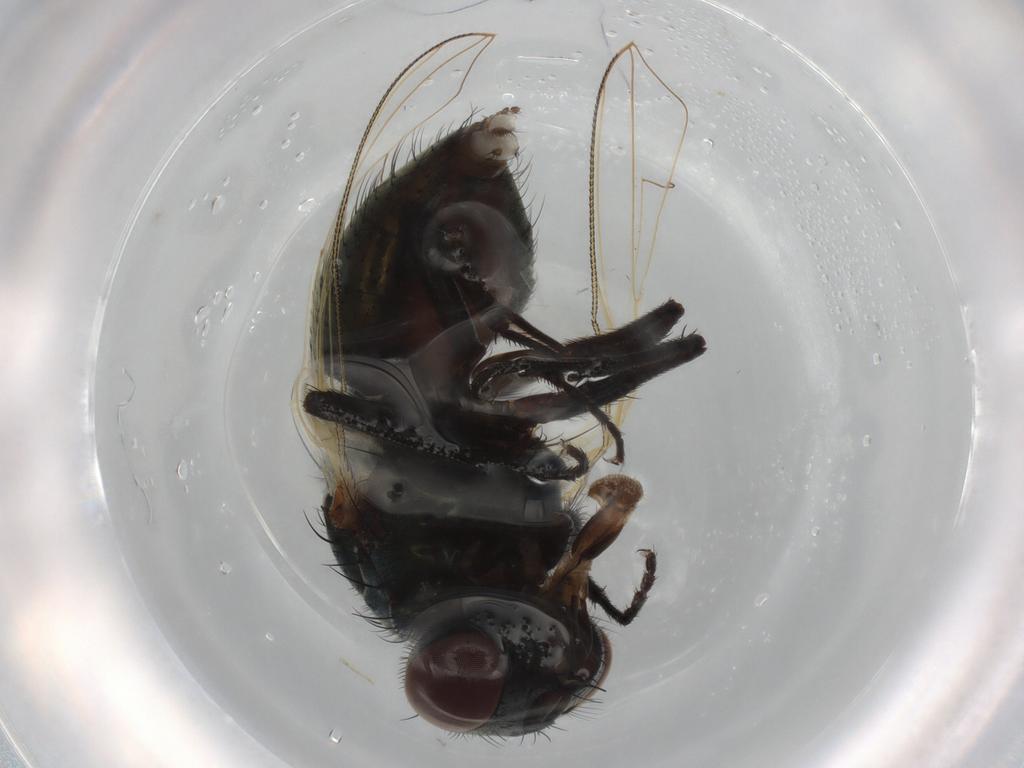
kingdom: Animalia
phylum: Arthropoda
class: Insecta
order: Diptera
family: Muscidae
